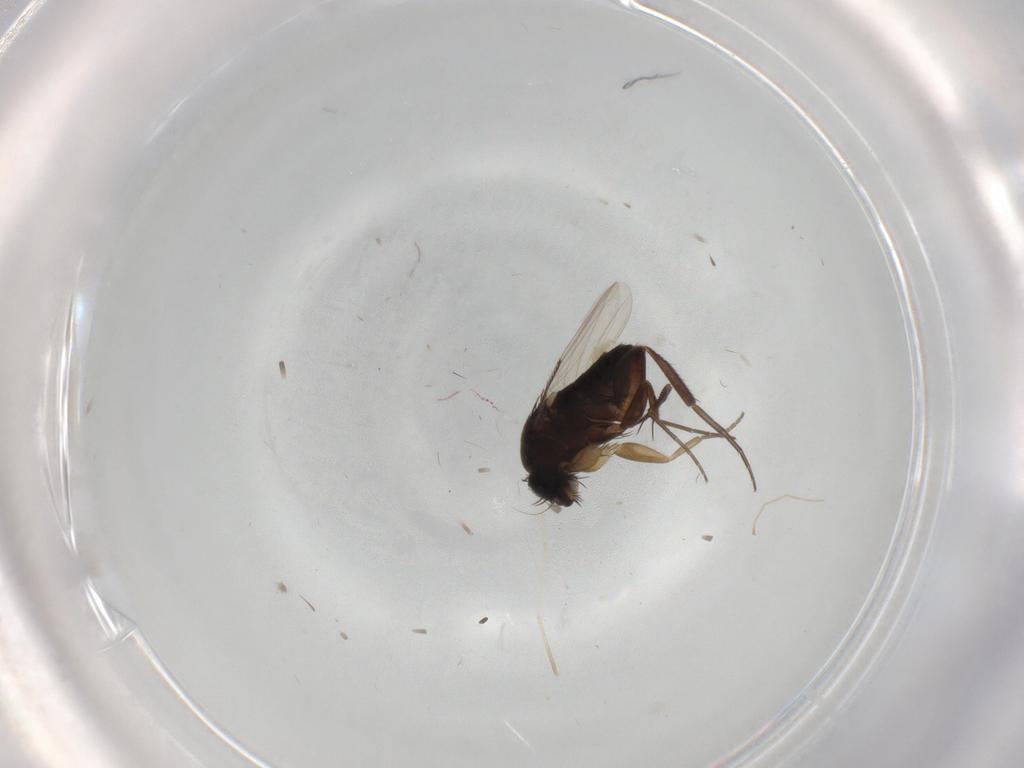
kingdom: Animalia
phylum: Arthropoda
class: Insecta
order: Diptera
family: Phoridae
